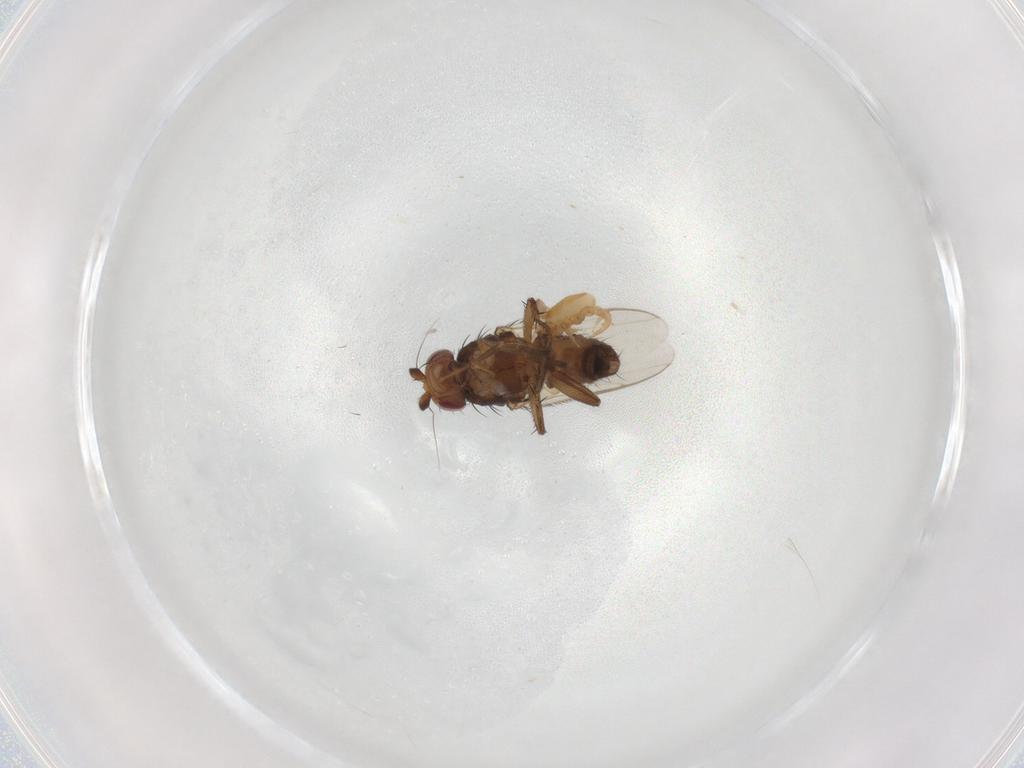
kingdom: Animalia
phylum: Arthropoda
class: Insecta
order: Diptera
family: Sphaeroceridae
